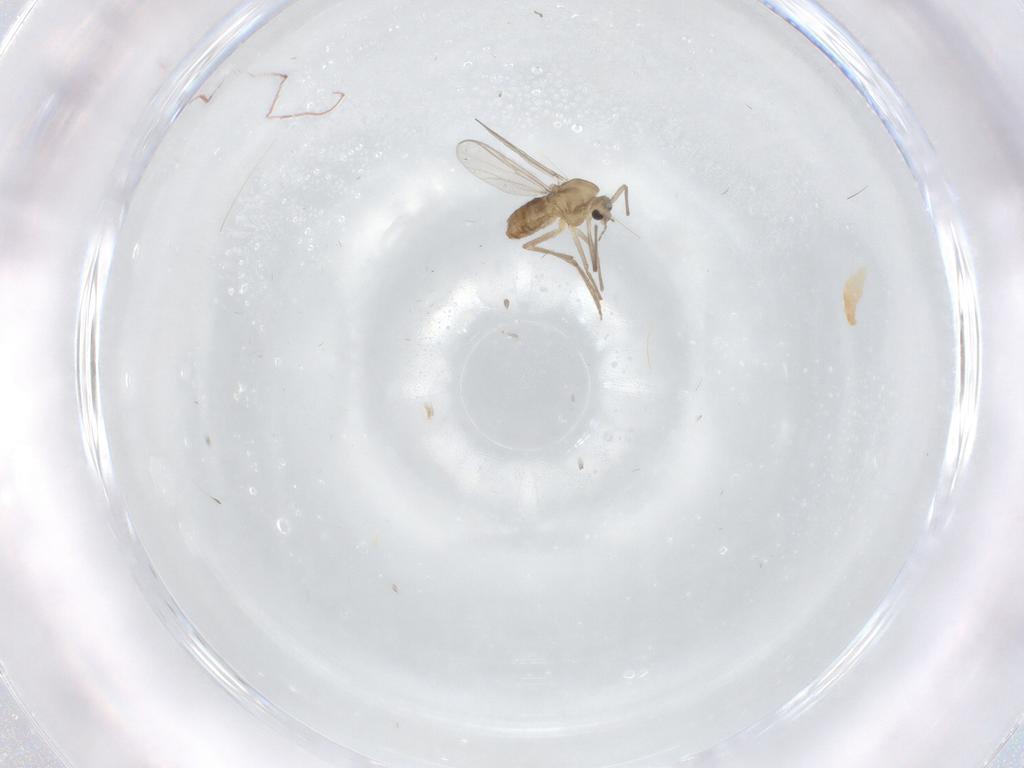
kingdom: Animalia
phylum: Arthropoda
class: Insecta
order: Diptera
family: Chironomidae
